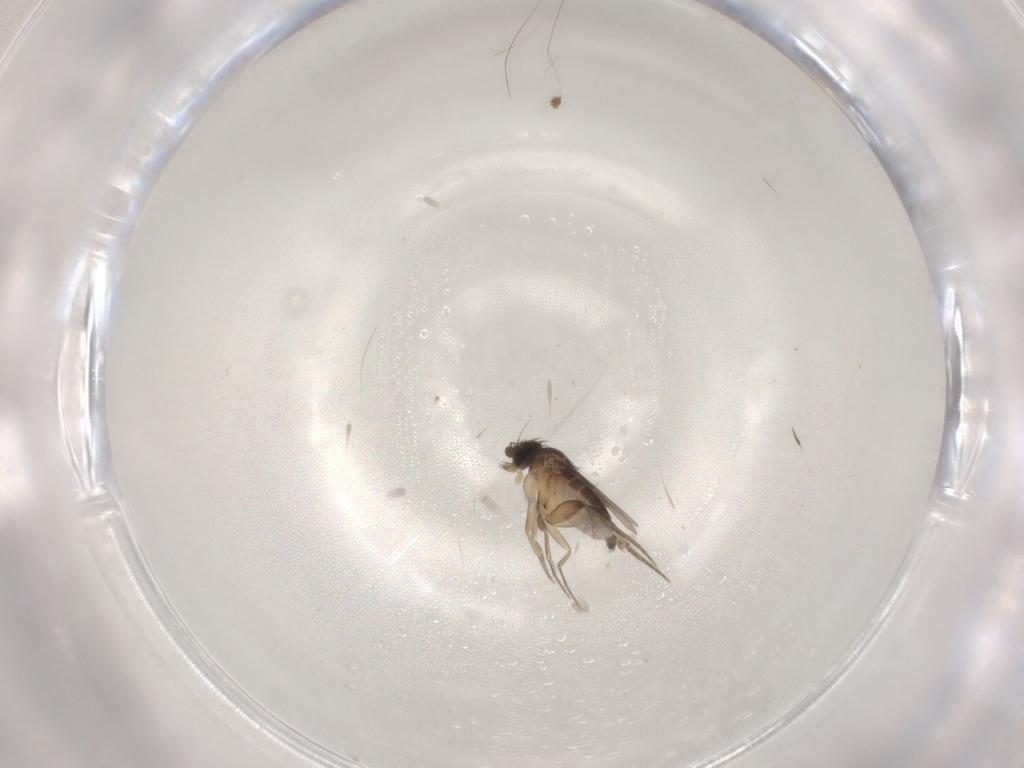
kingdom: Animalia
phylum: Arthropoda
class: Insecta
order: Diptera
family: Phoridae
